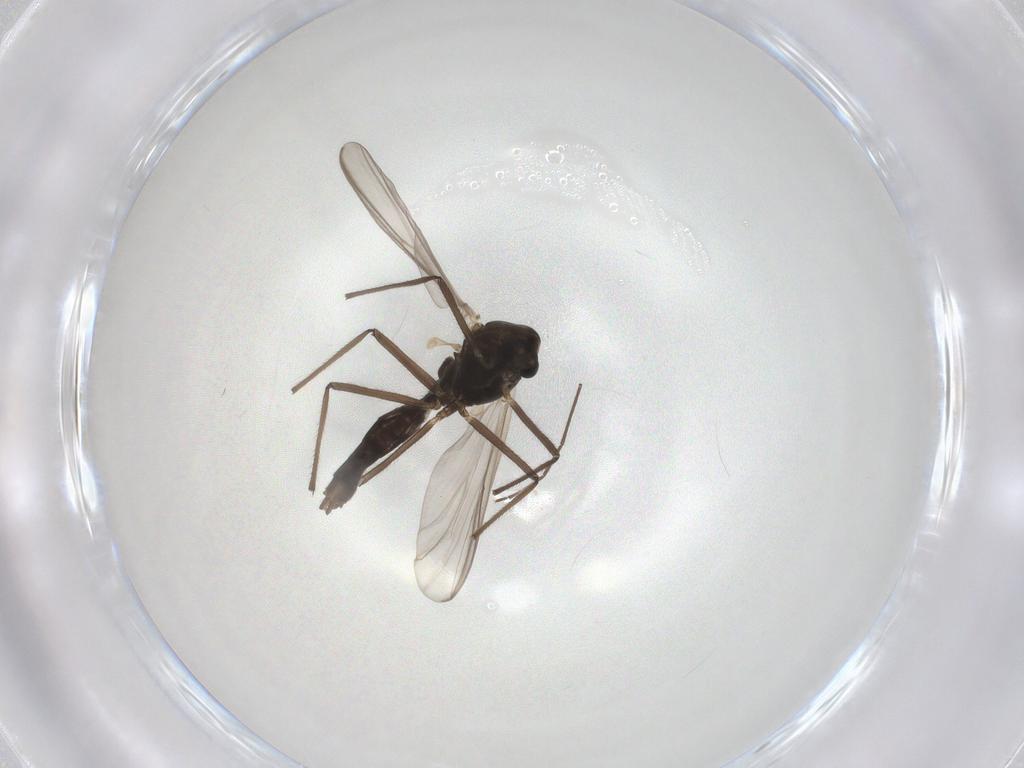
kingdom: Animalia
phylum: Arthropoda
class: Insecta
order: Diptera
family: Chironomidae
